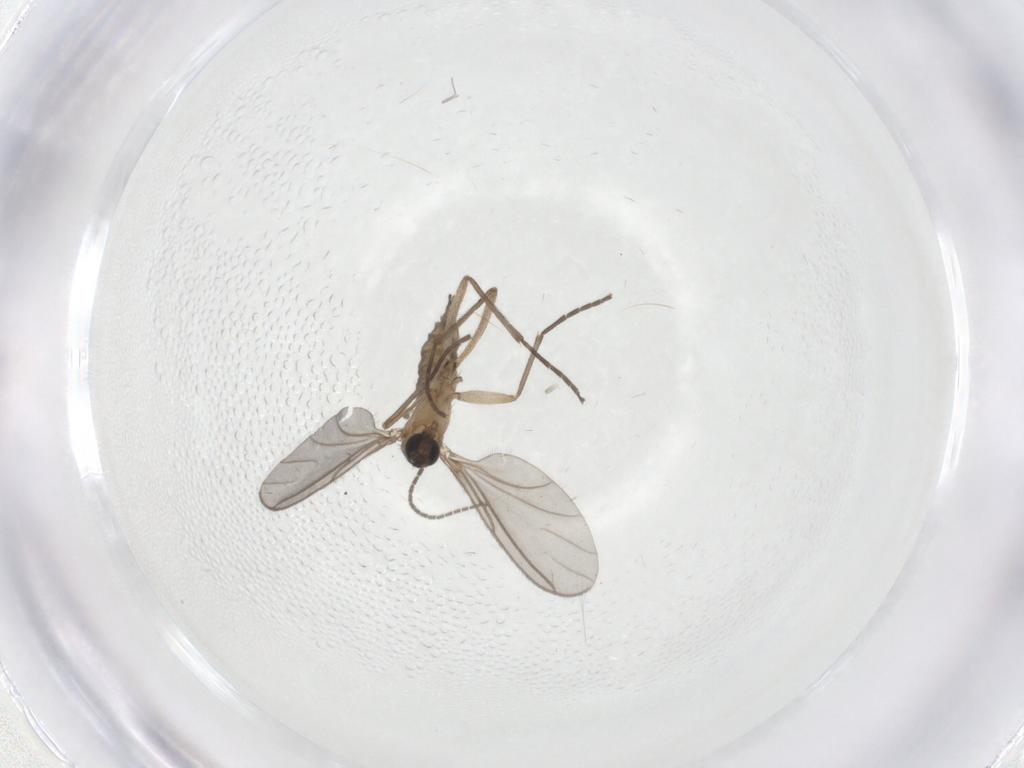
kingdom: Animalia
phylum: Arthropoda
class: Insecta
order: Diptera
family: Sciaridae
